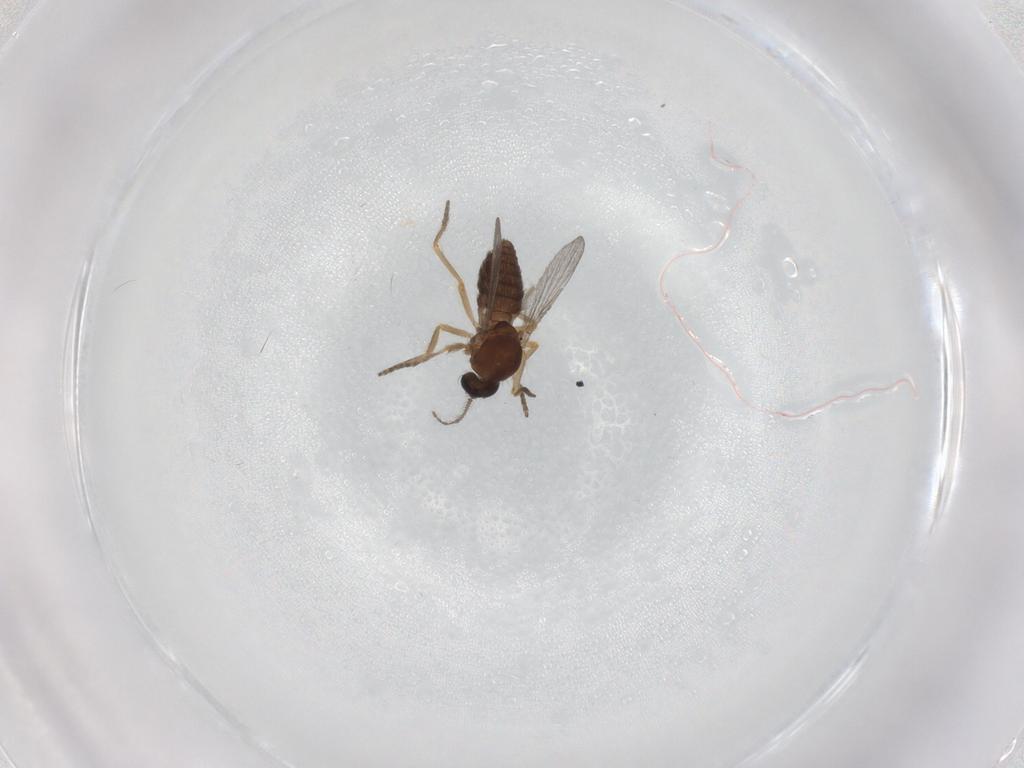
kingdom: Animalia
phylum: Arthropoda
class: Insecta
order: Diptera
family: Ceratopogonidae
